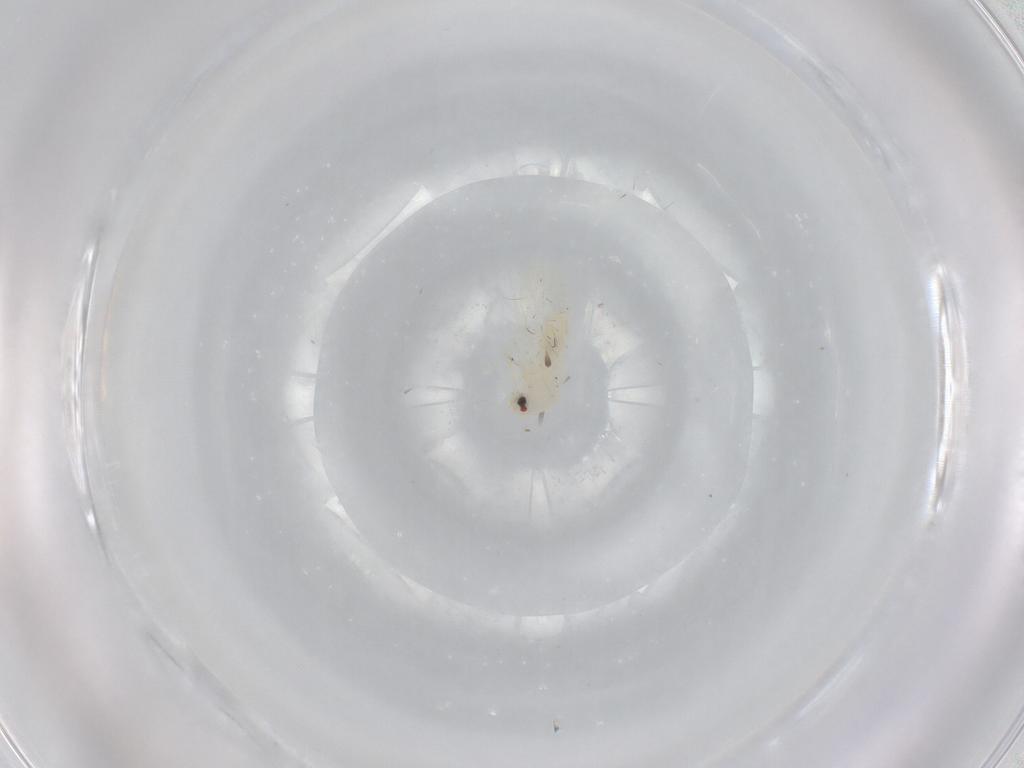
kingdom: Animalia
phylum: Arthropoda
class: Insecta
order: Hemiptera
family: Aleyrodidae
